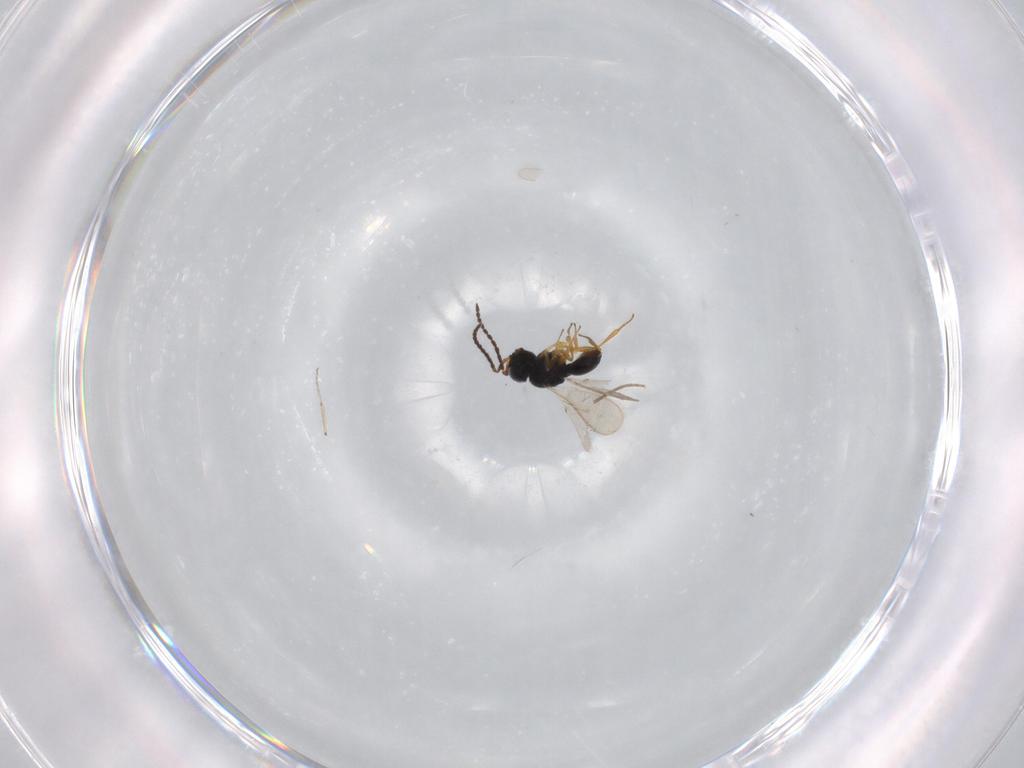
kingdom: Animalia
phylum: Arthropoda
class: Insecta
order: Hymenoptera
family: Scelionidae
